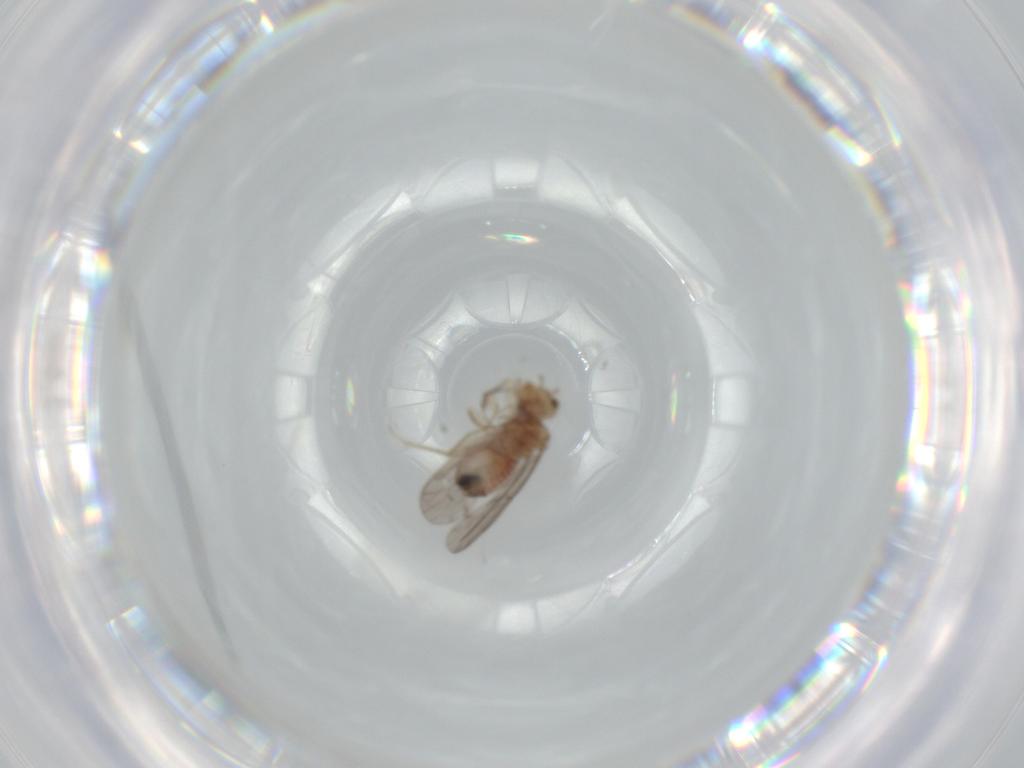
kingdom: Animalia
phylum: Arthropoda
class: Insecta
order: Psocodea
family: Ectopsocidae
